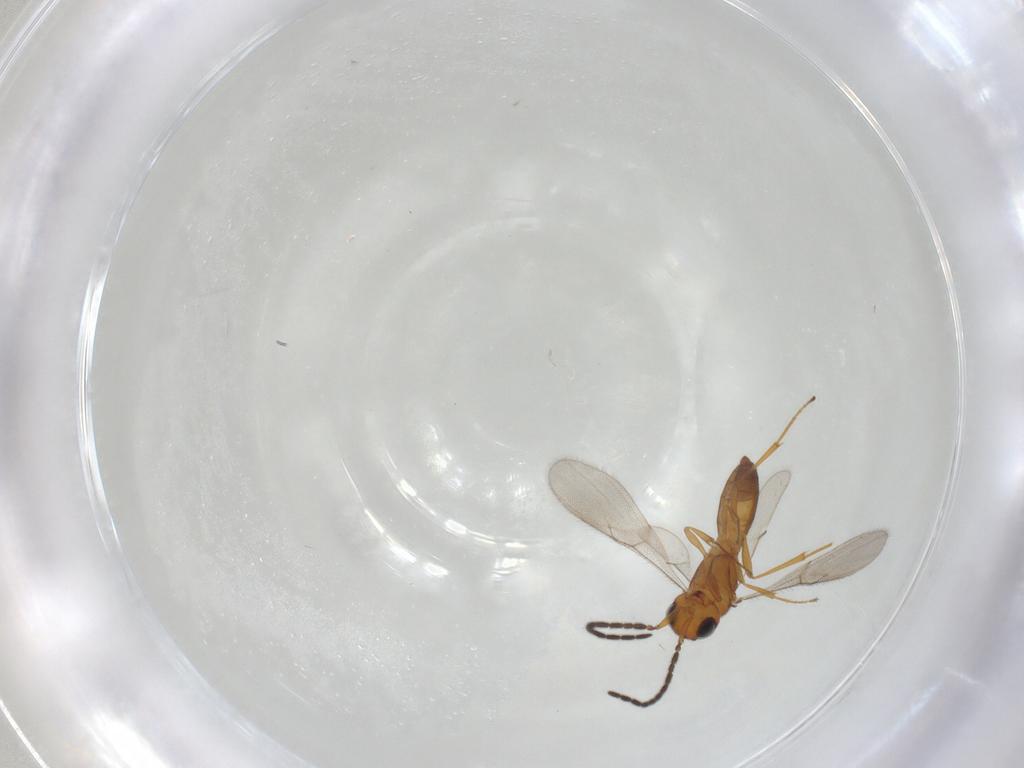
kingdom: Animalia
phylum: Arthropoda
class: Insecta
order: Hymenoptera
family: Scelionidae
